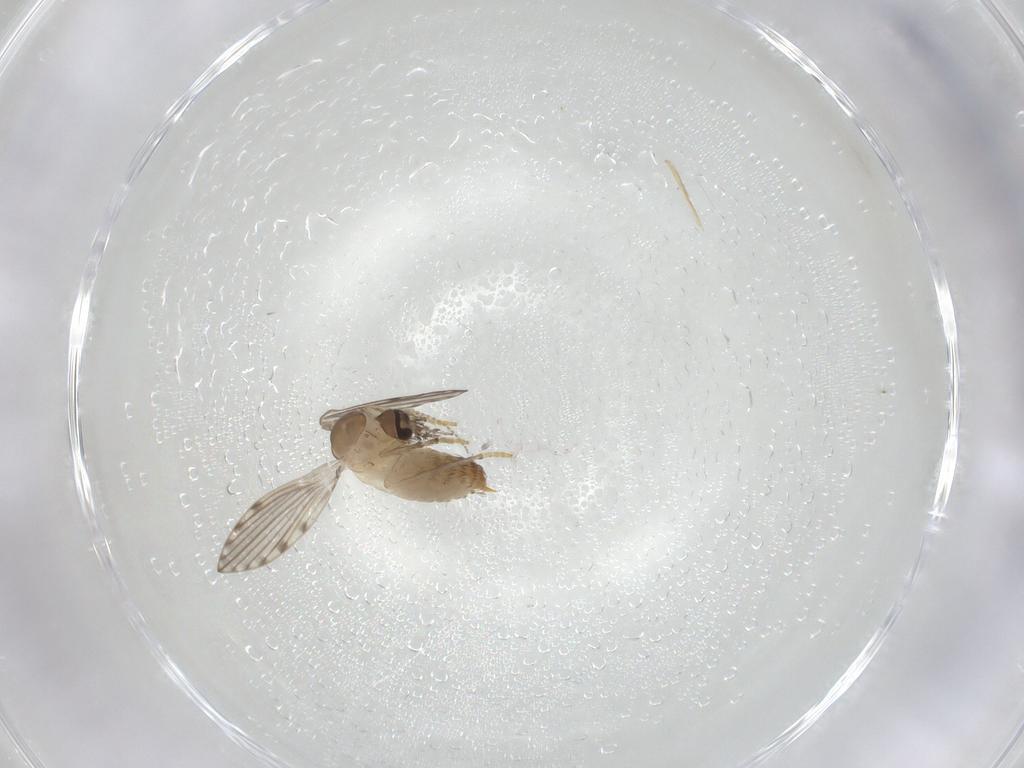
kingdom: Animalia
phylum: Arthropoda
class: Insecta
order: Diptera
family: Psychodidae
